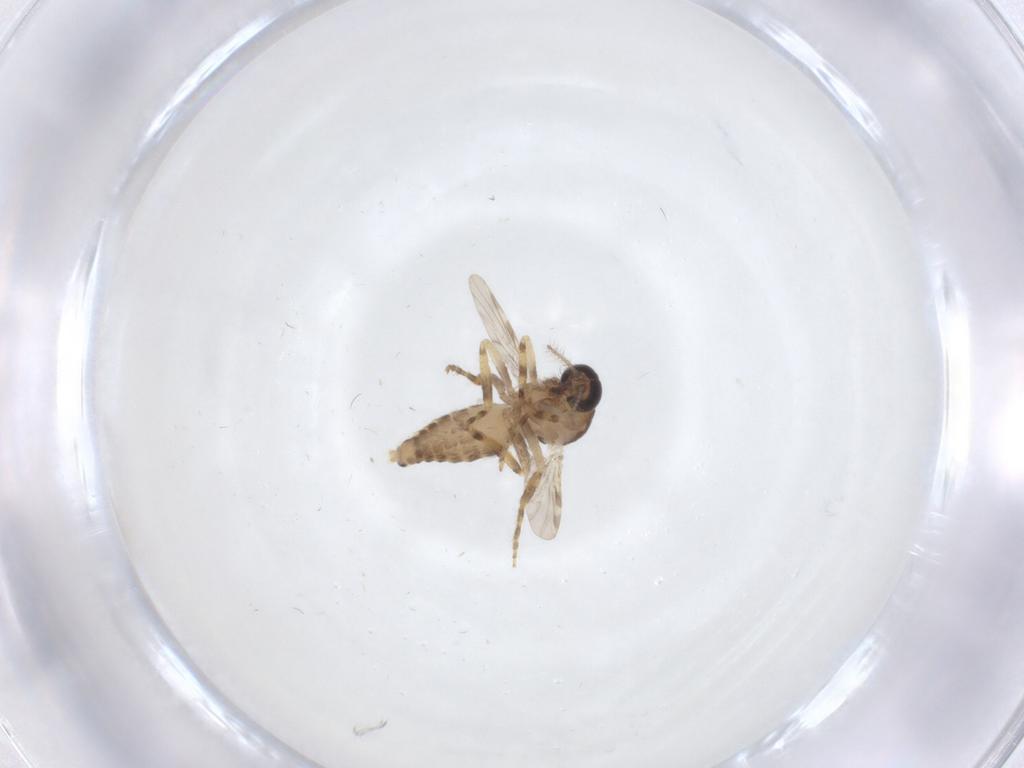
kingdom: Animalia
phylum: Arthropoda
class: Insecta
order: Diptera
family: Ceratopogonidae
